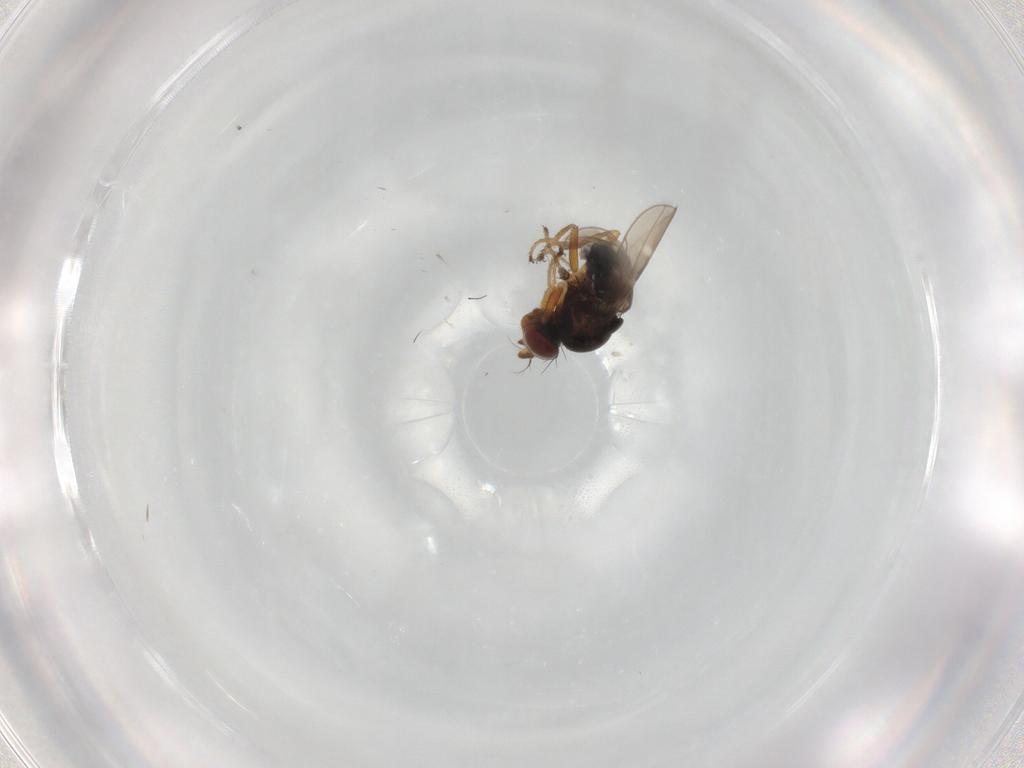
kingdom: Animalia
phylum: Arthropoda
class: Insecta
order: Diptera
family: Ephydridae
